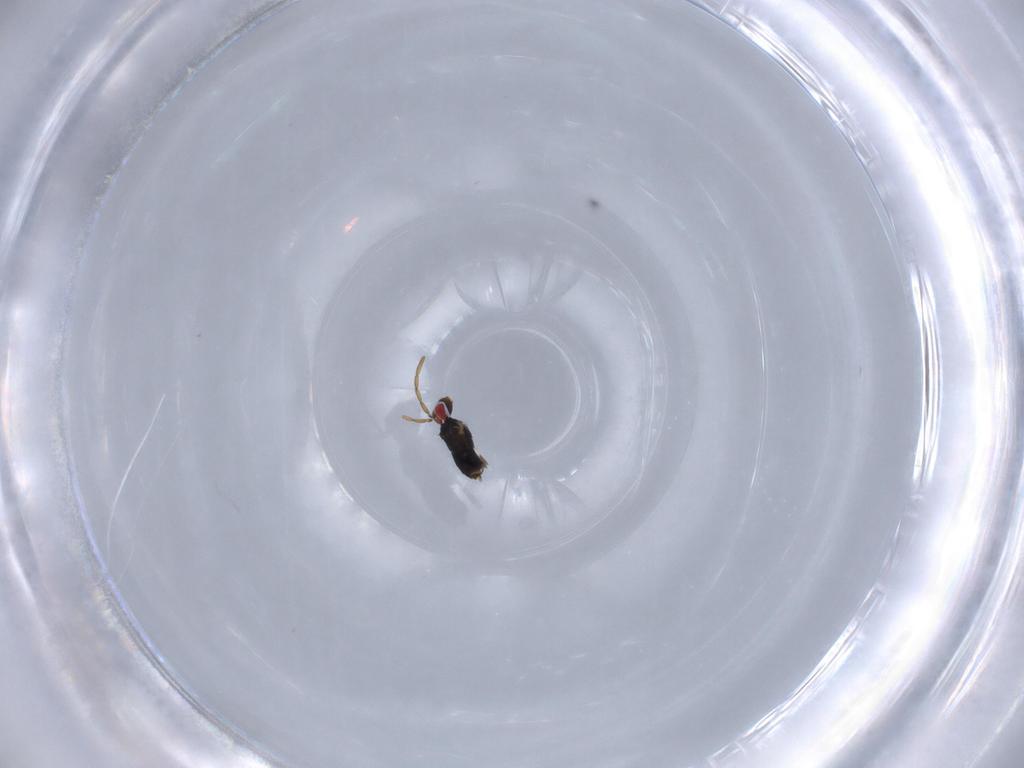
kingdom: Animalia
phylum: Arthropoda
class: Insecta
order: Hymenoptera
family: Azotidae
